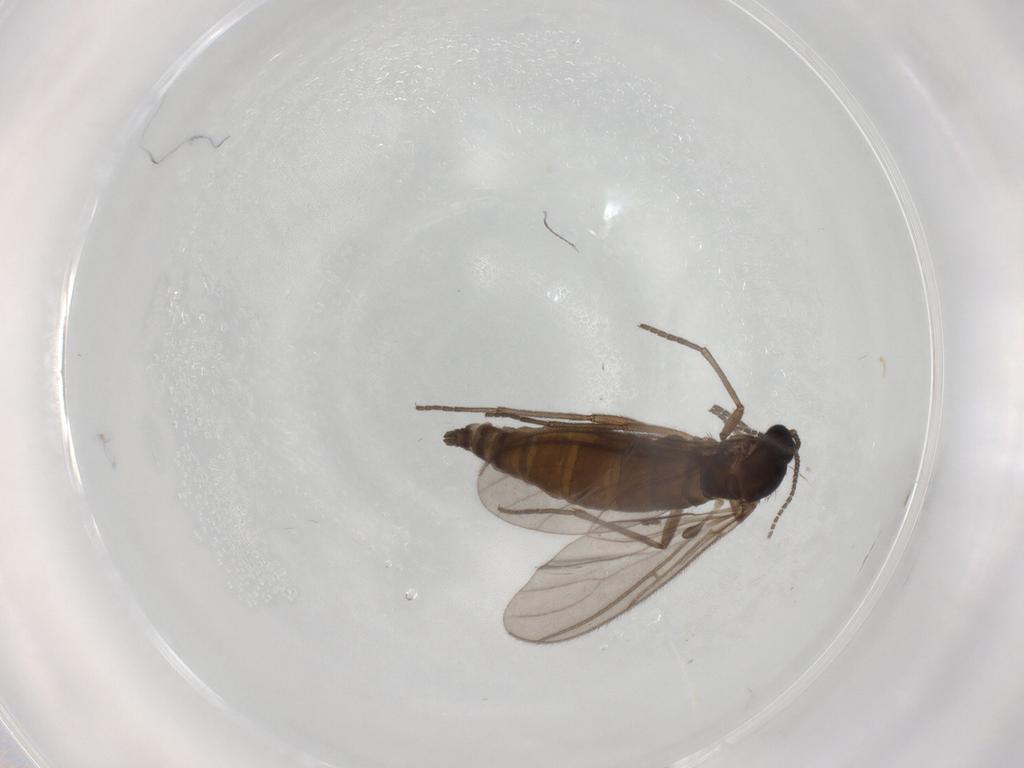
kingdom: Animalia
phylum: Arthropoda
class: Insecta
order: Diptera
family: Sciaridae
